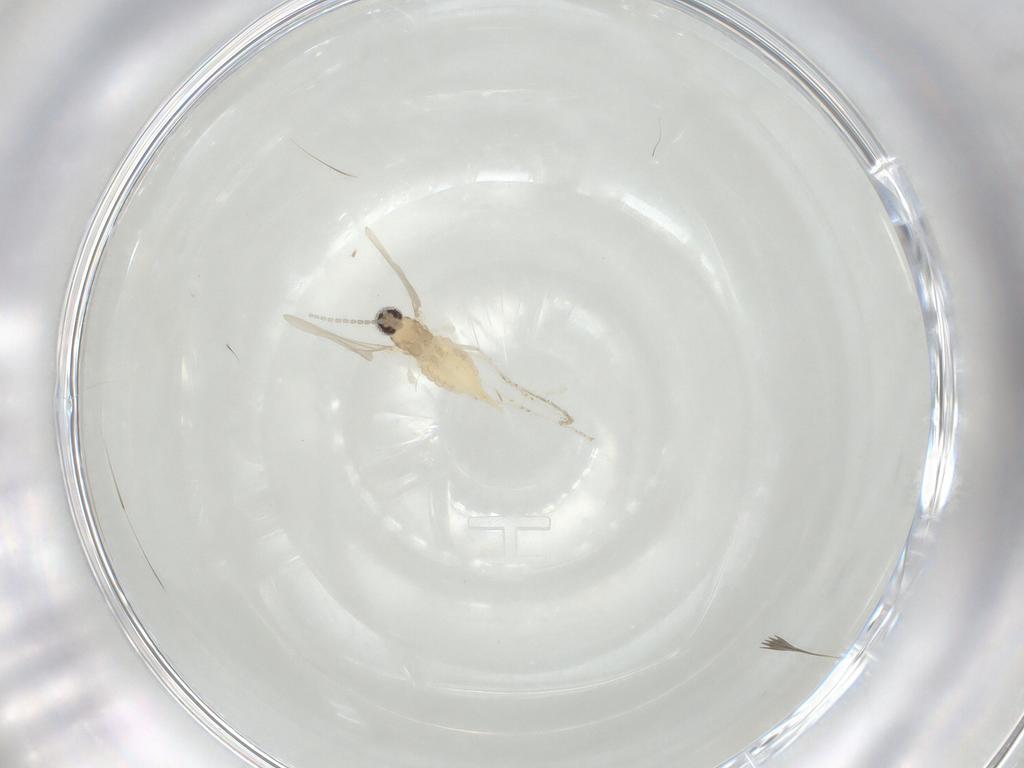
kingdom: Animalia
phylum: Arthropoda
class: Insecta
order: Diptera
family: Cecidomyiidae
